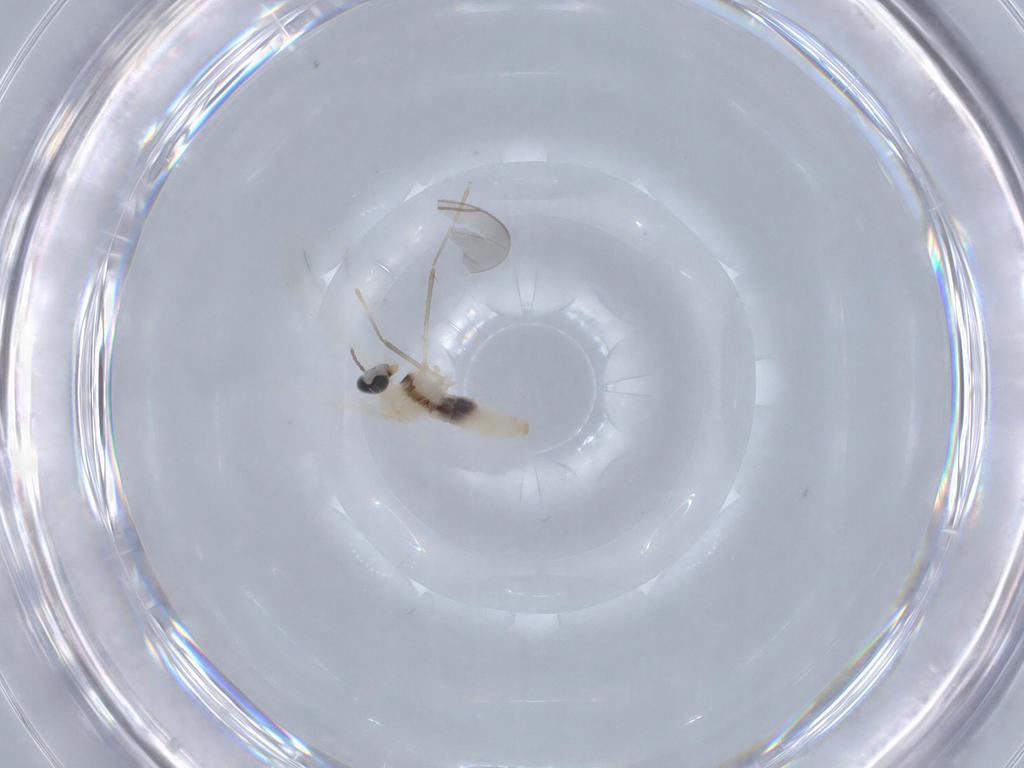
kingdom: Animalia
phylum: Arthropoda
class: Insecta
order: Diptera
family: Cecidomyiidae
